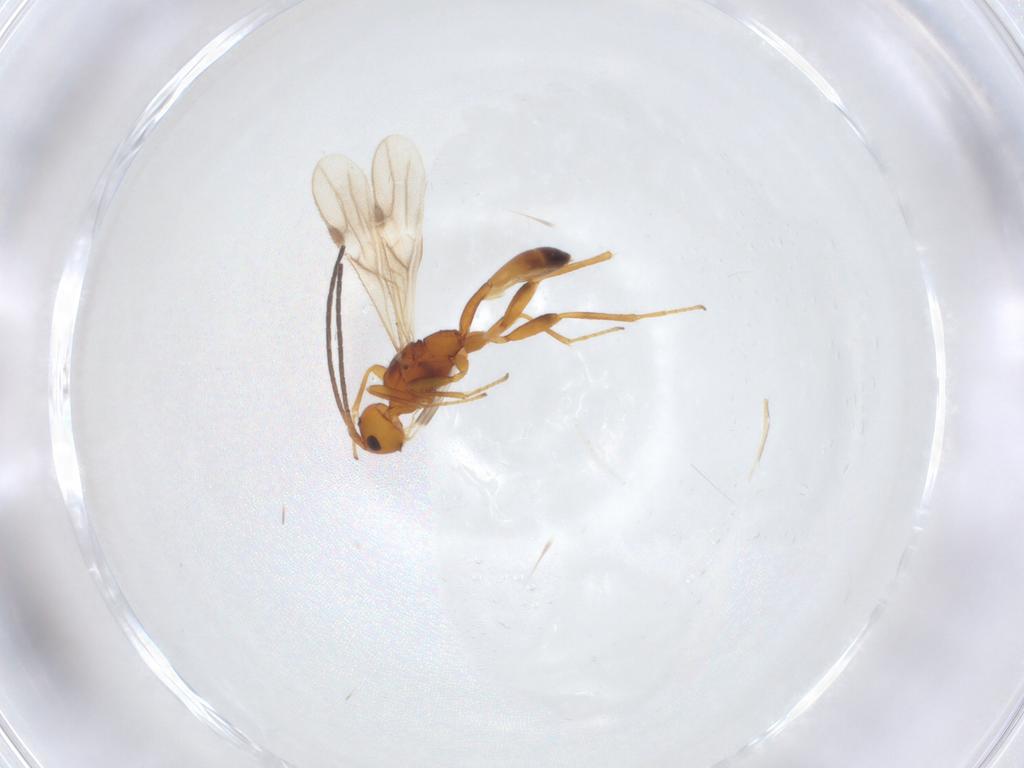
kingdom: Animalia
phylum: Arthropoda
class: Insecta
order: Hymenoptera
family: Braconidae
